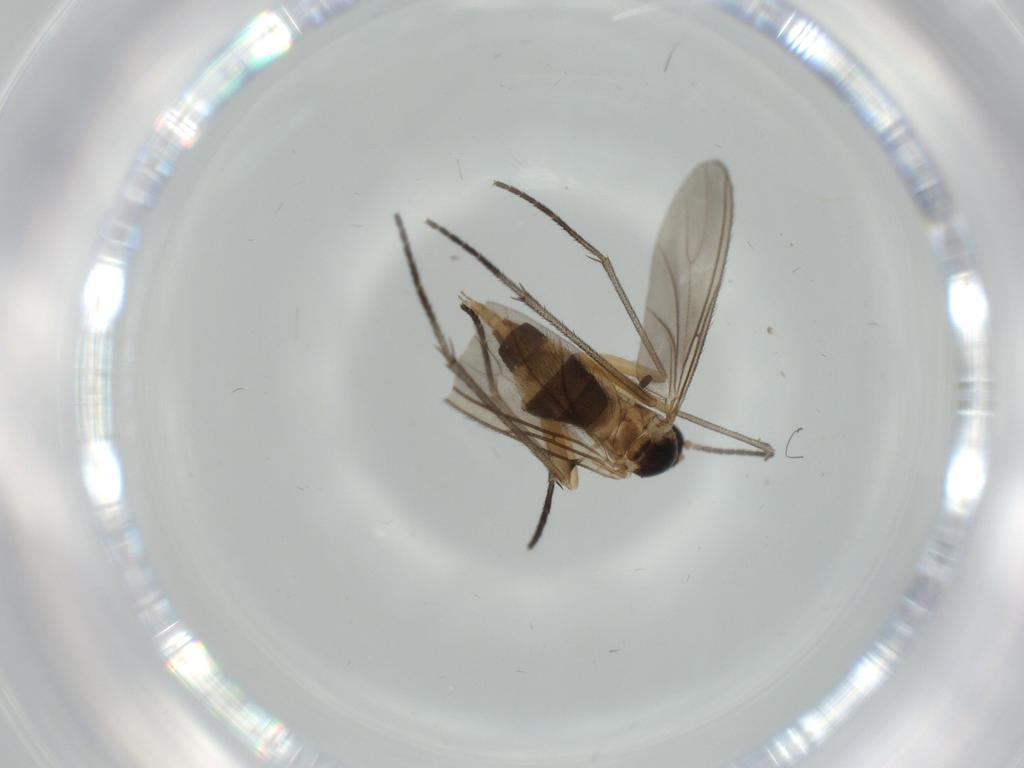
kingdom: Animalia
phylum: Arthropoda
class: Insecta
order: Diptera
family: Sciaridae
